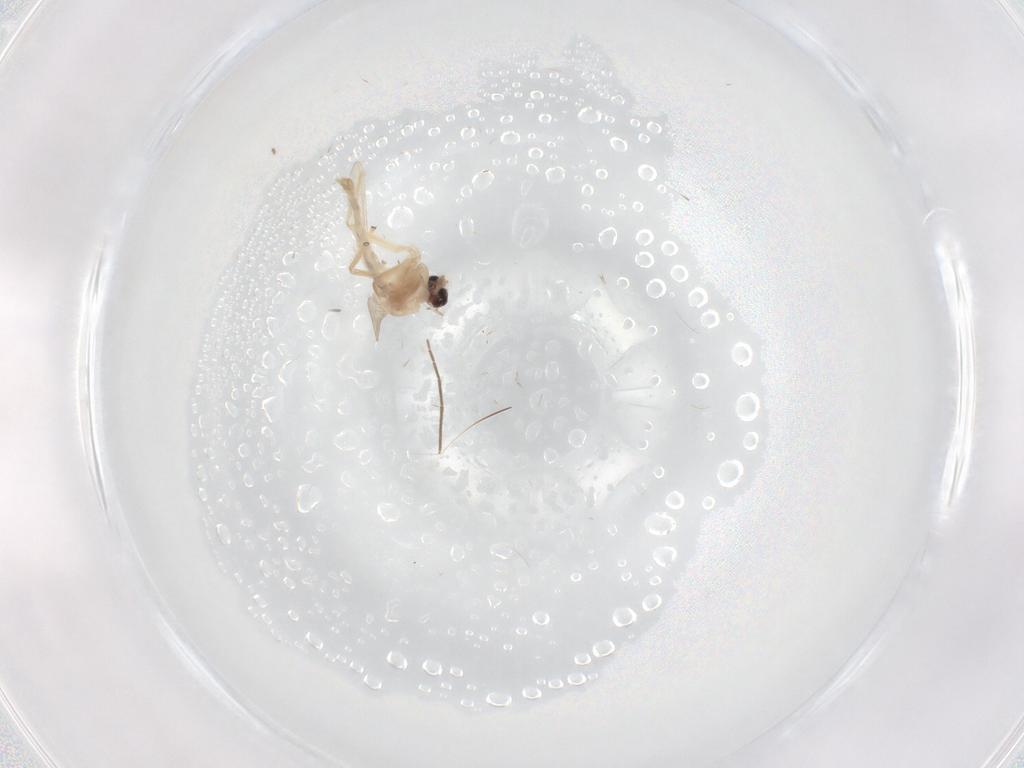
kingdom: Animalia
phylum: Arthropoda
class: Insecta
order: Diptera
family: Chironomidae
